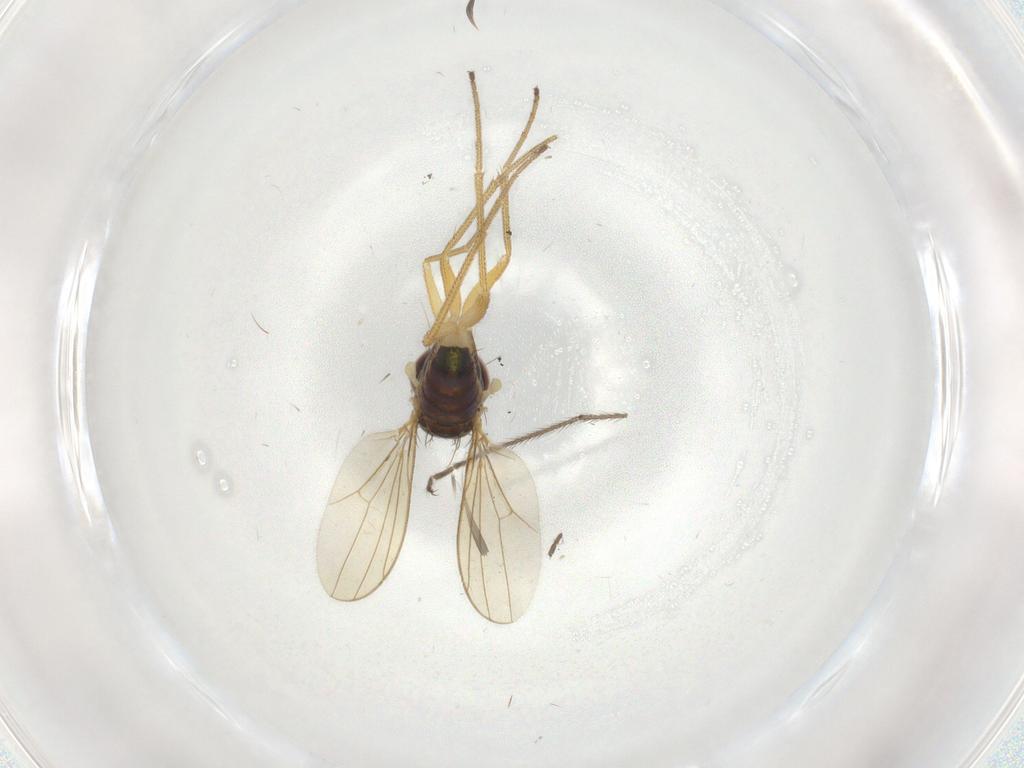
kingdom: Animalia
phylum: Arthropoda
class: Insecta
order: Diptera
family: Dolichopodidae
